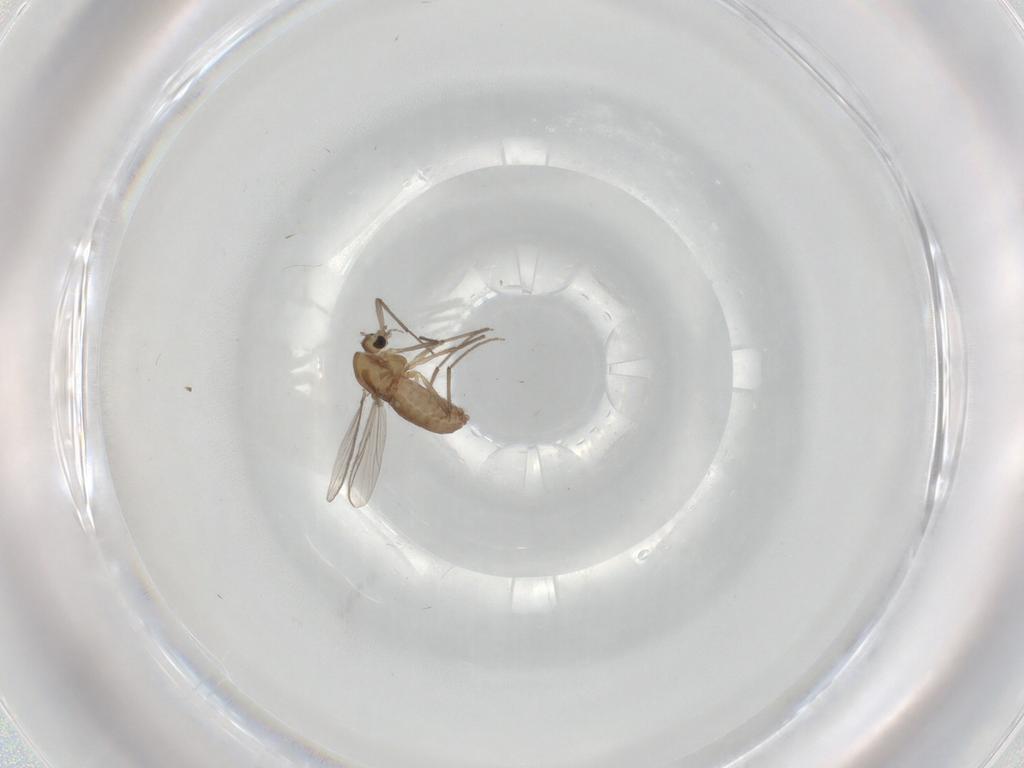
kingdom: Animalia
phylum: Arthropoda
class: Insecta
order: Diptera
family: Chironomidae
